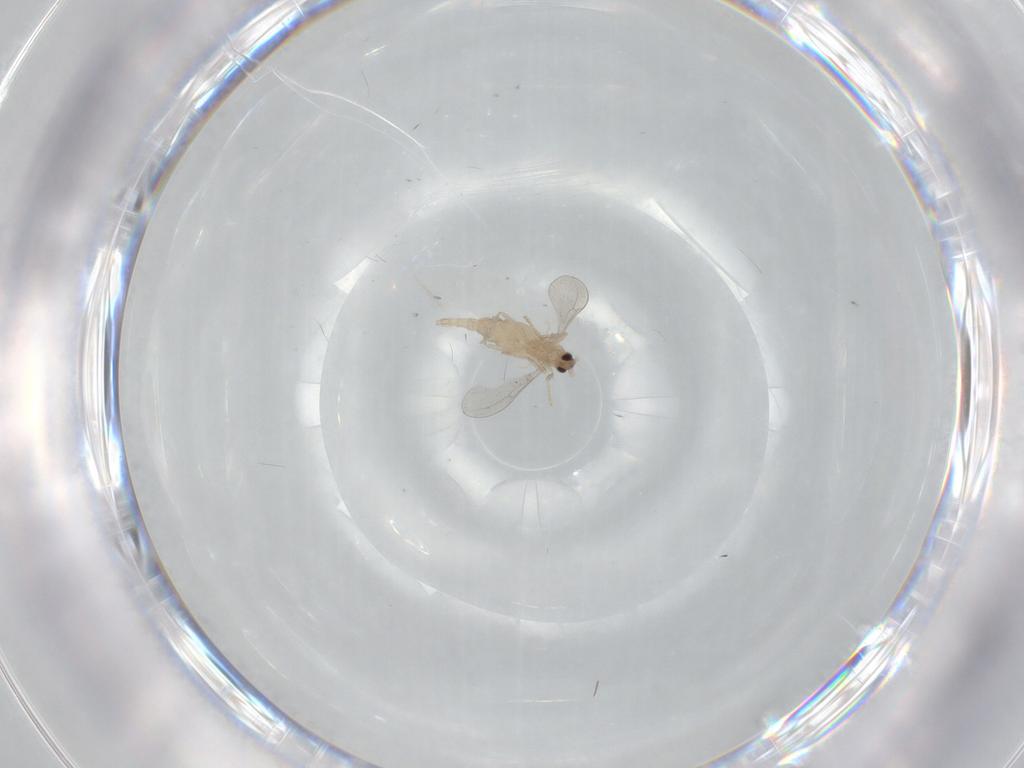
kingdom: Animalia
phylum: Arthropoda
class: Insecta
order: Diptera
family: Cecidomyiidae
